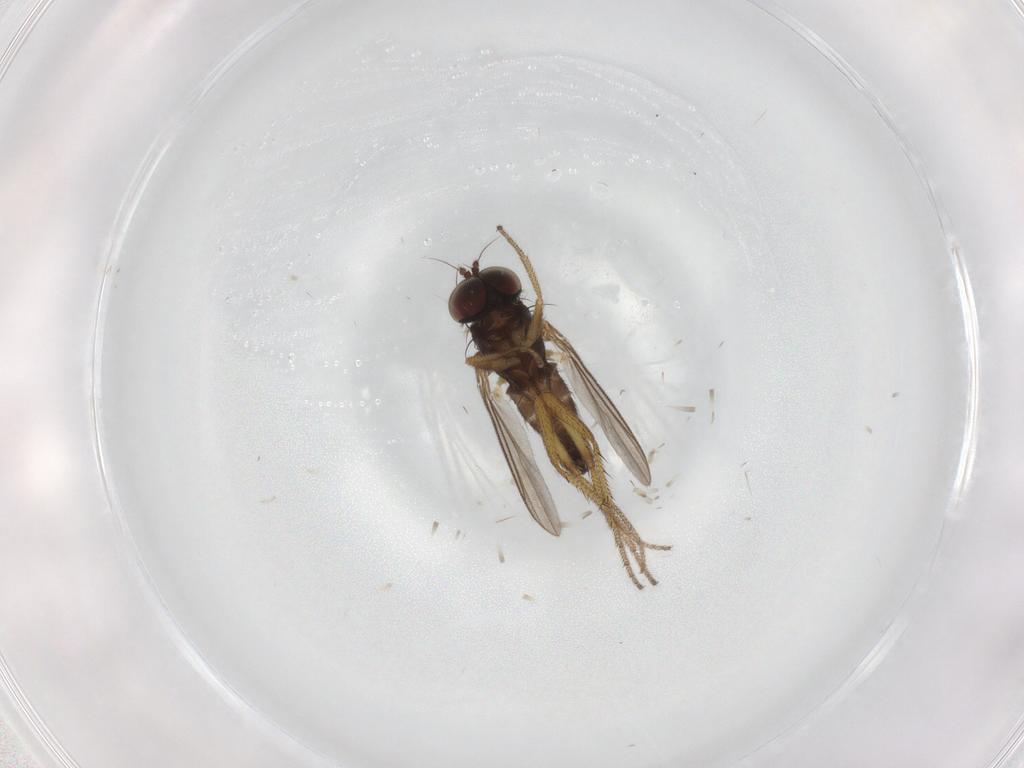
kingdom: Animalia
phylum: Arthropoda
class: Insecta
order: Diptera
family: Dolichopodidae
